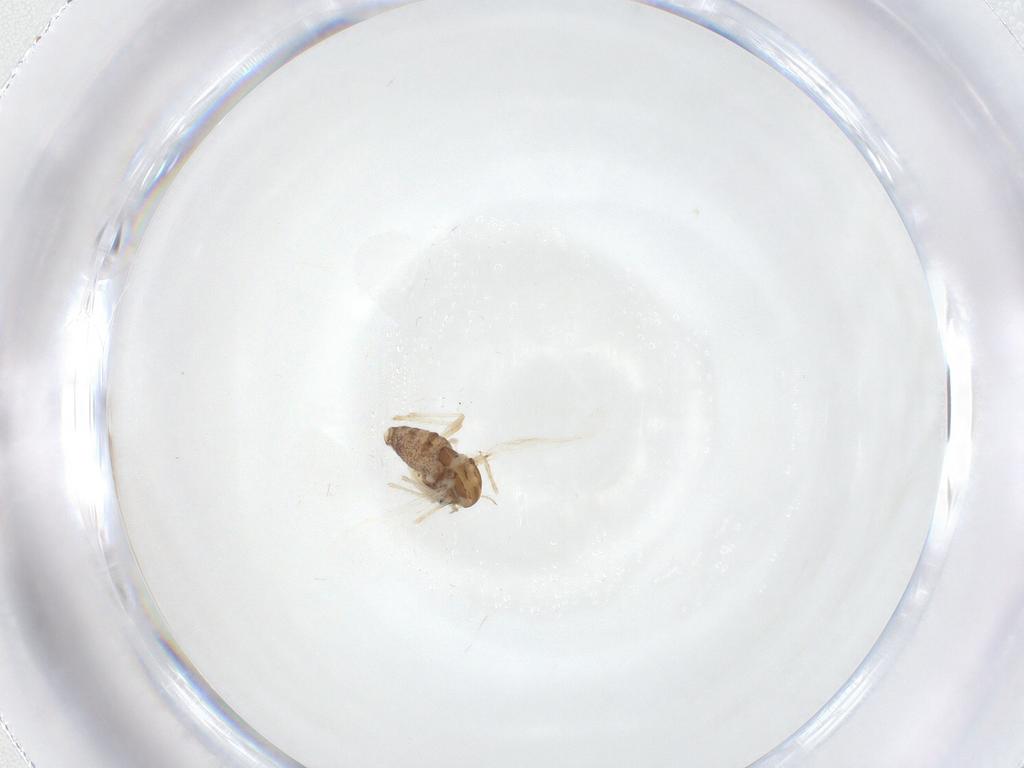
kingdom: Animalia
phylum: Arthropoda
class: Insecta
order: Diptera
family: Chironomidae
